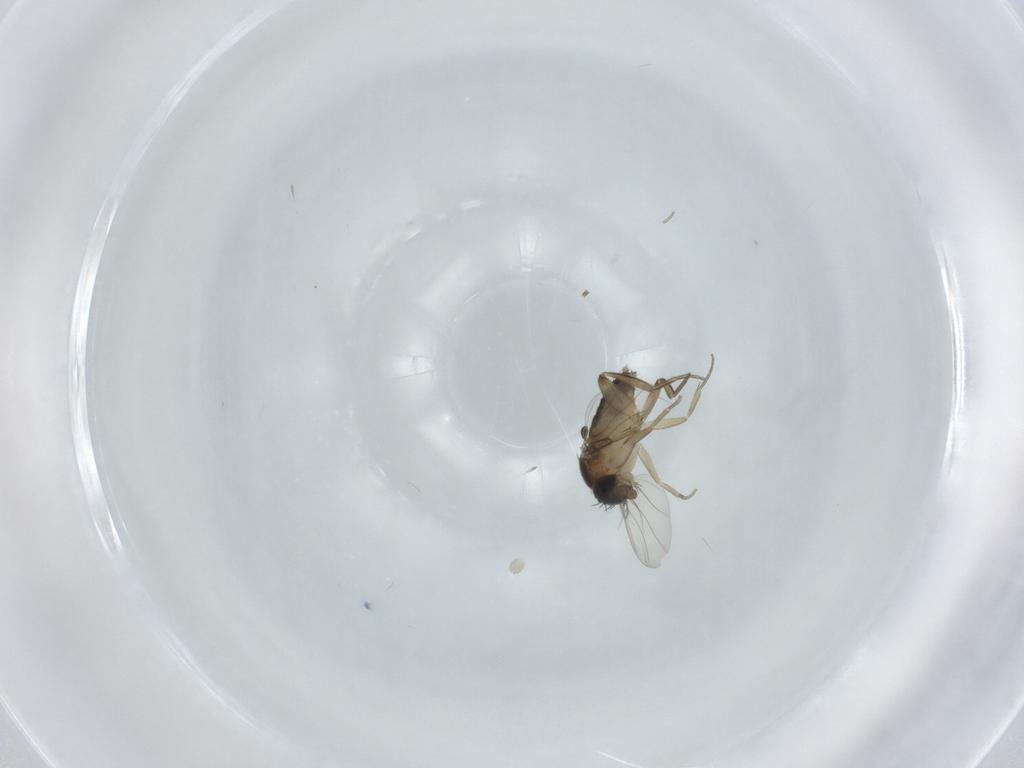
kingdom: Animalia
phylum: Arthropoda
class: Insecta
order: Diptera
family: Phoridae
